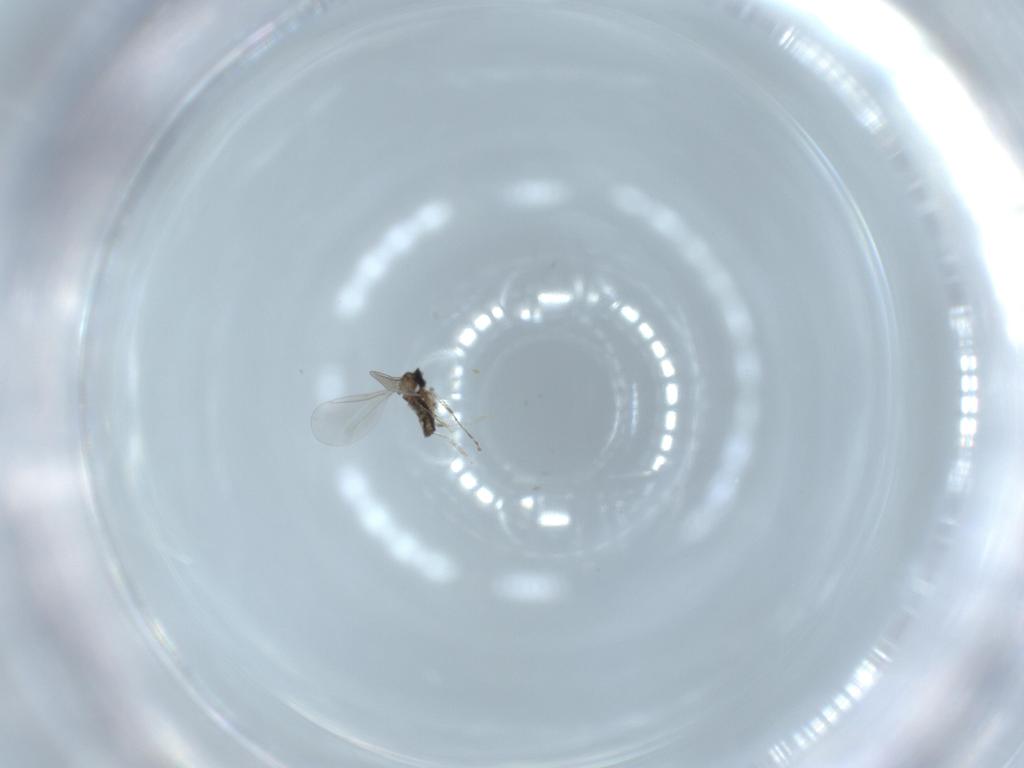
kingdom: Animalia
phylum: Arthropoda
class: Insecta
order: Diptera
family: Cecidomyiidae
